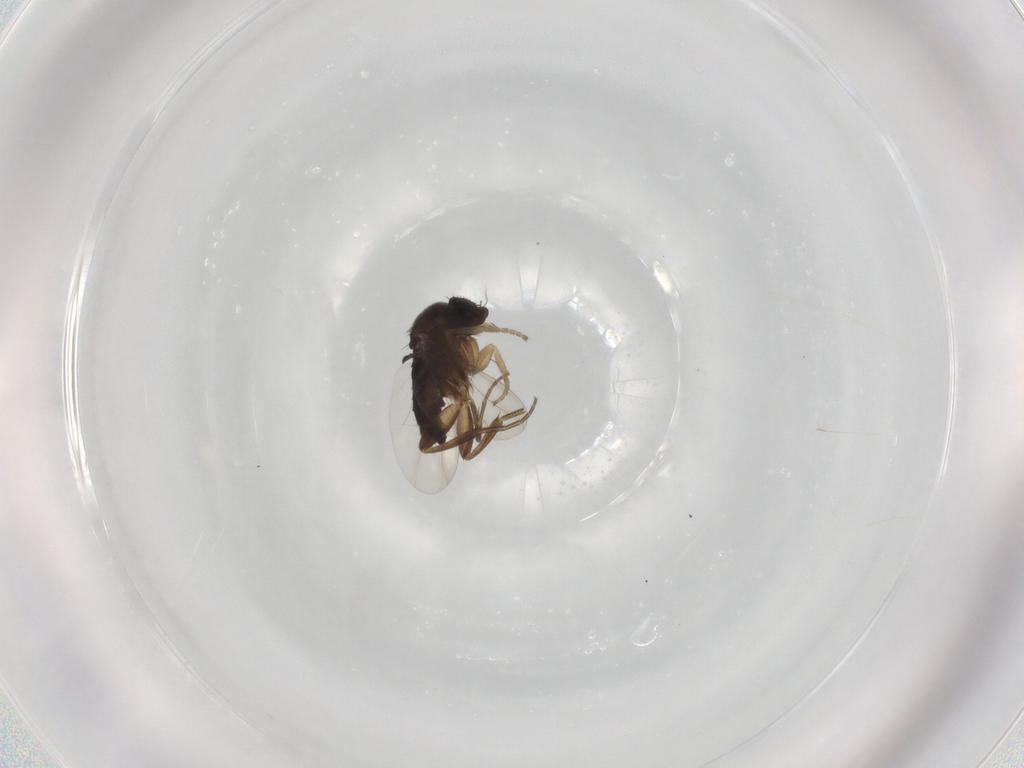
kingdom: Animalia
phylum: Arthropoda
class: Insecta
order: Diptera
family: Phoridae
